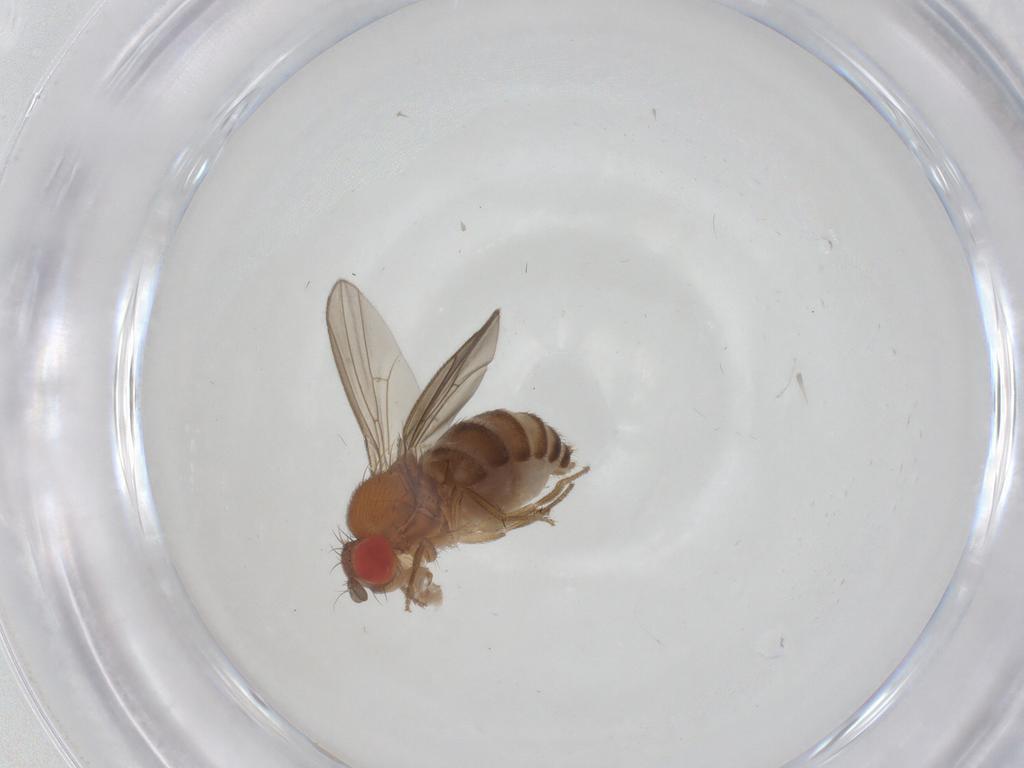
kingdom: Animalia
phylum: Arthropoda
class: Insecta
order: Diptera
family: Drosophilidae
